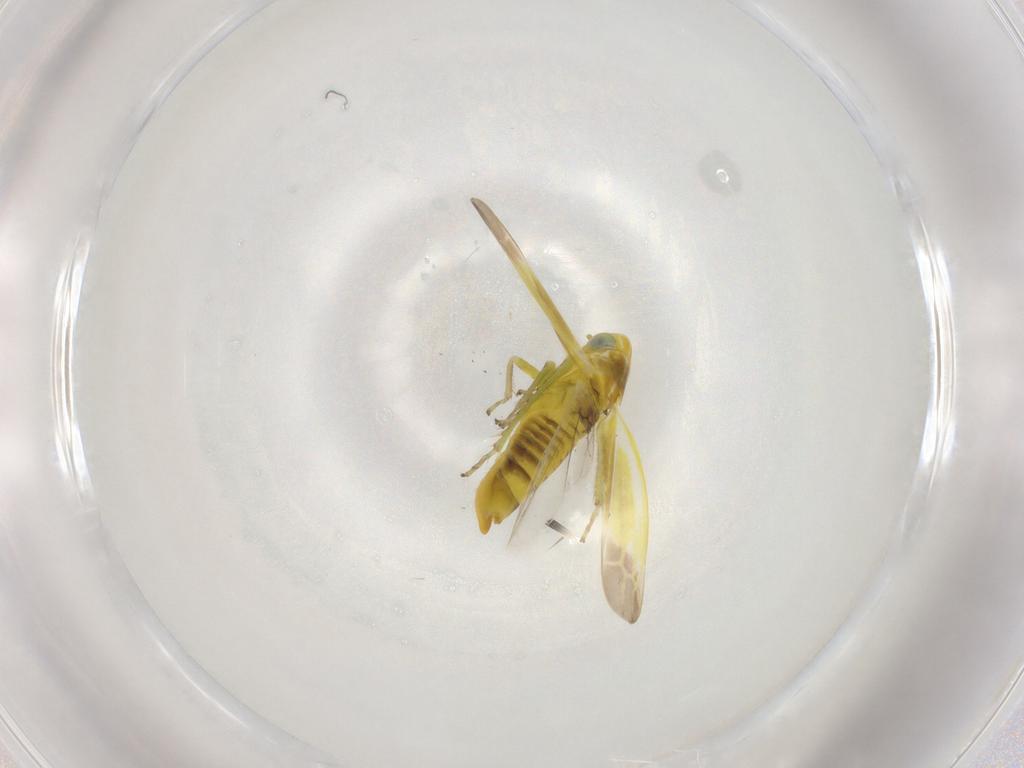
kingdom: Animalia
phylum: Arthropoda
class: Insecta
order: Hemiptera
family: Cicadellidae
